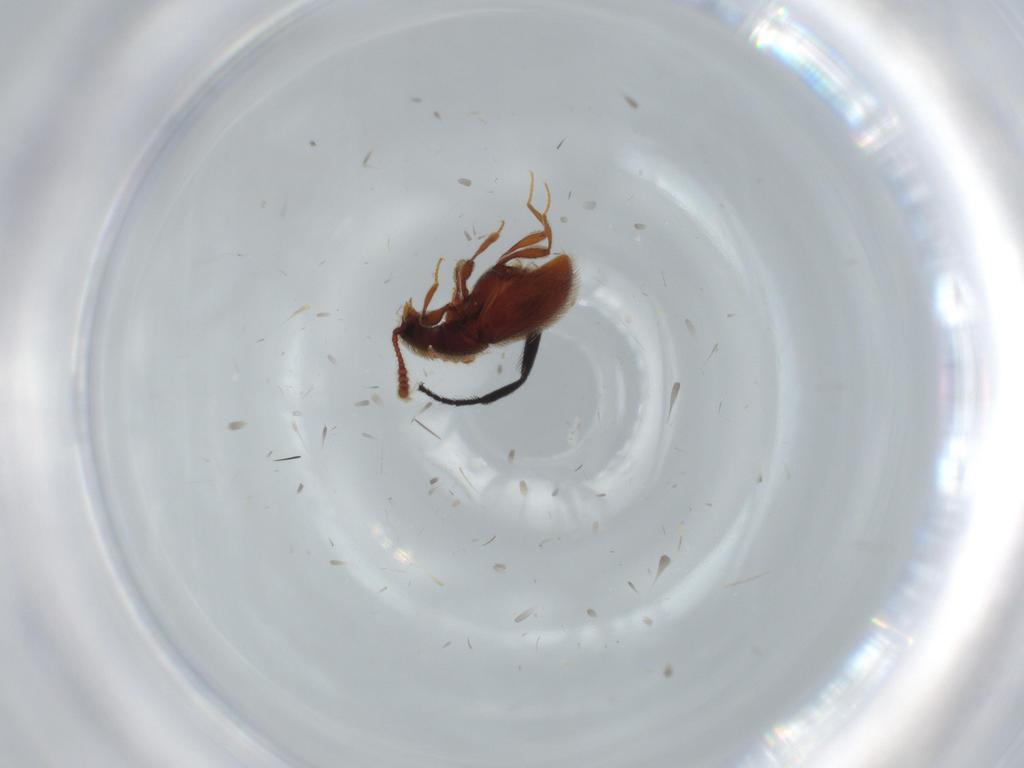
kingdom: Animalia
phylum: Arthropoda
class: Insecta
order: Coleoptera
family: Staphylinidae
